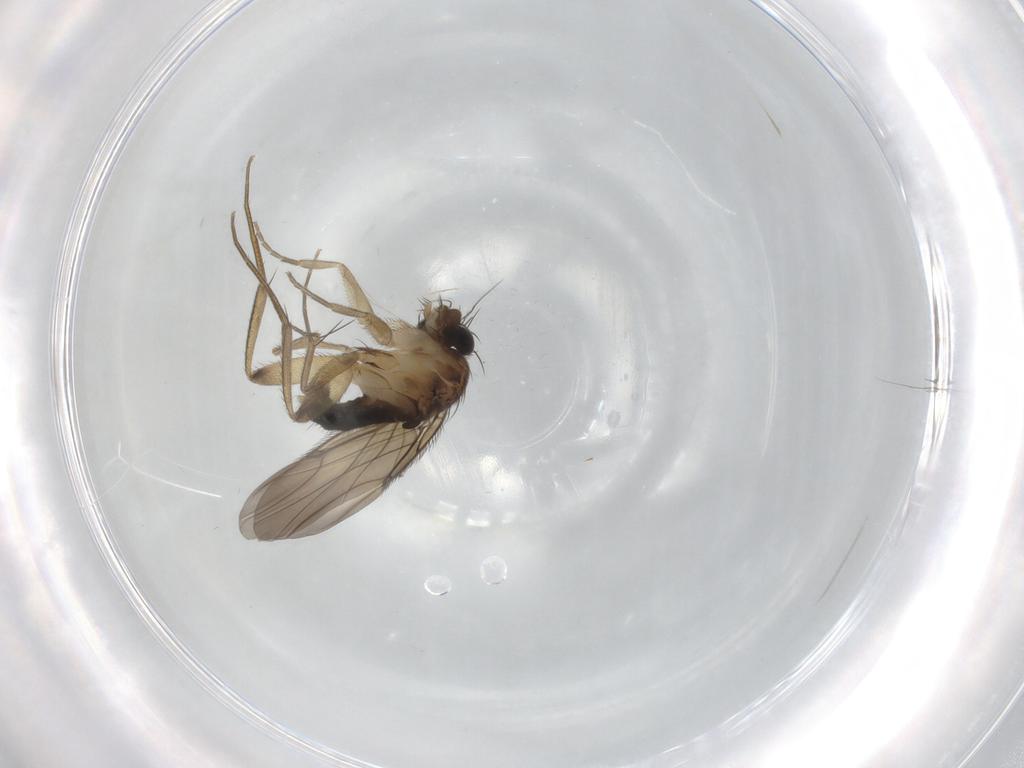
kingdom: Animalia
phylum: Arthropoda
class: Insecta
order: Diptera
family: Phoridae
